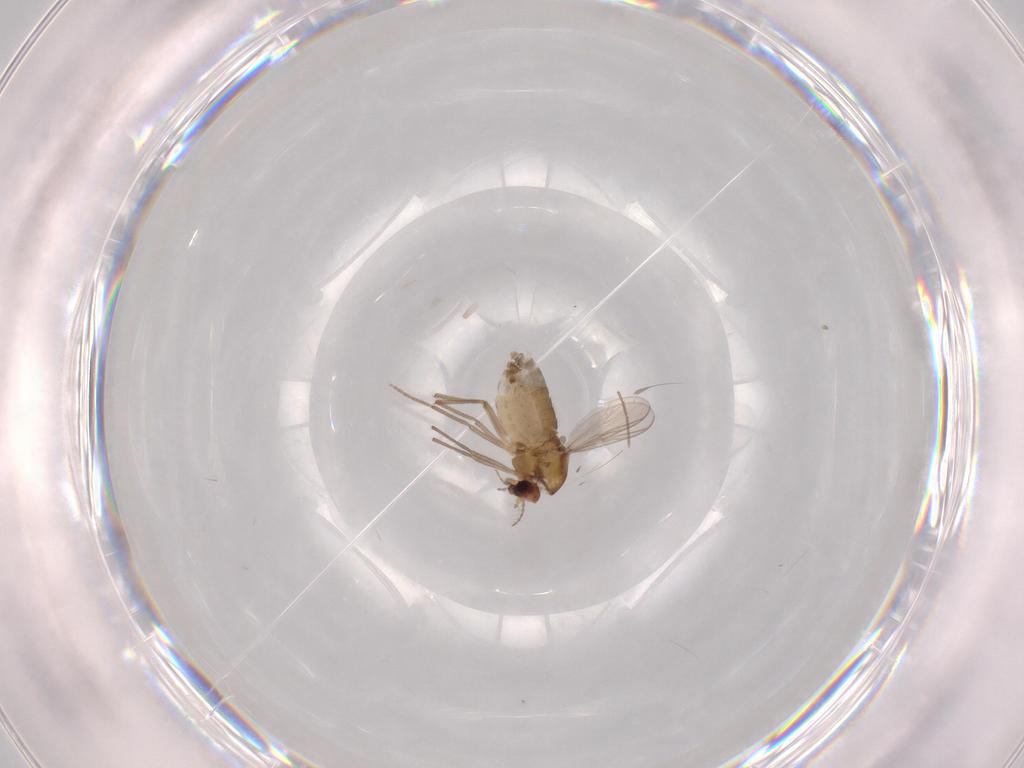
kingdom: Animalia
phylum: Arthropoda
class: Insecta
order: Diptera
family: Chironomidae
